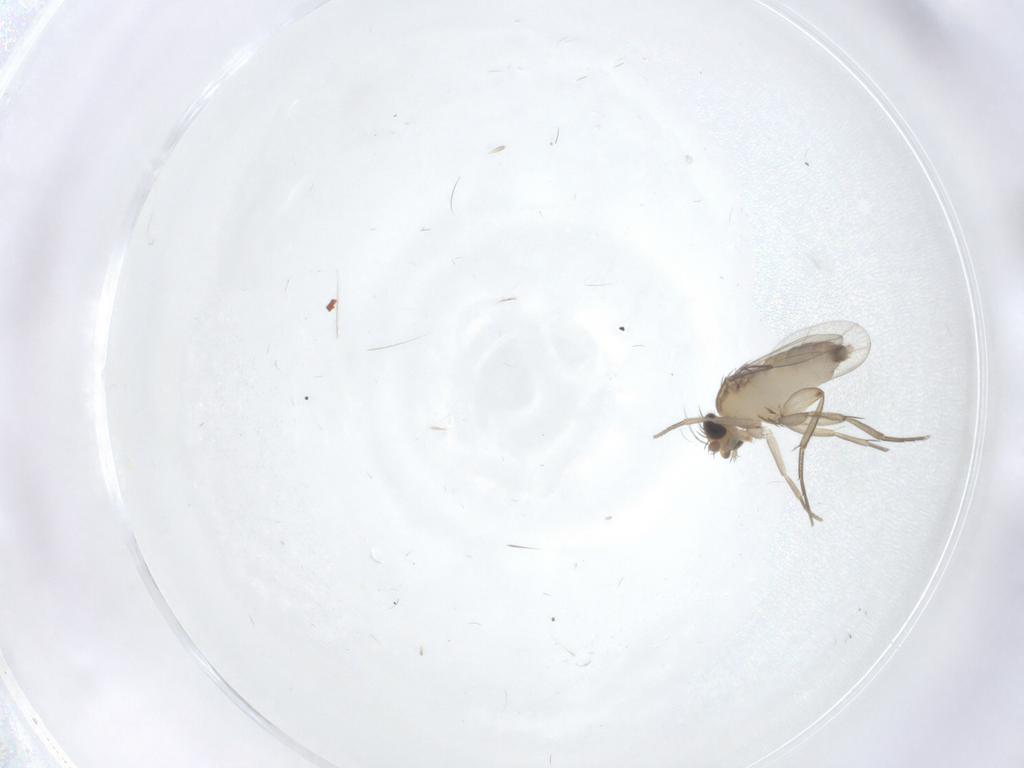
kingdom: Animalia
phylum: Arthropoda
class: Insecta
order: Diptera
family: Phoridae
